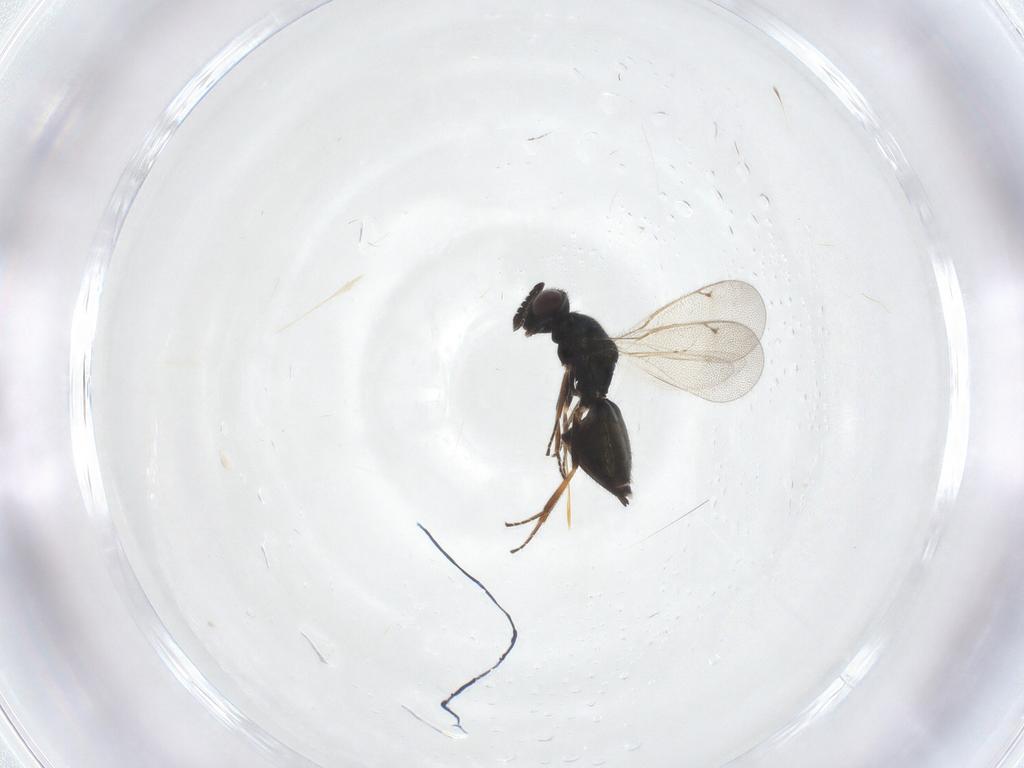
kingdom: Animalia
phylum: Arthropoda
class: Insecta
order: Hymenoptera
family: Eulophidae
